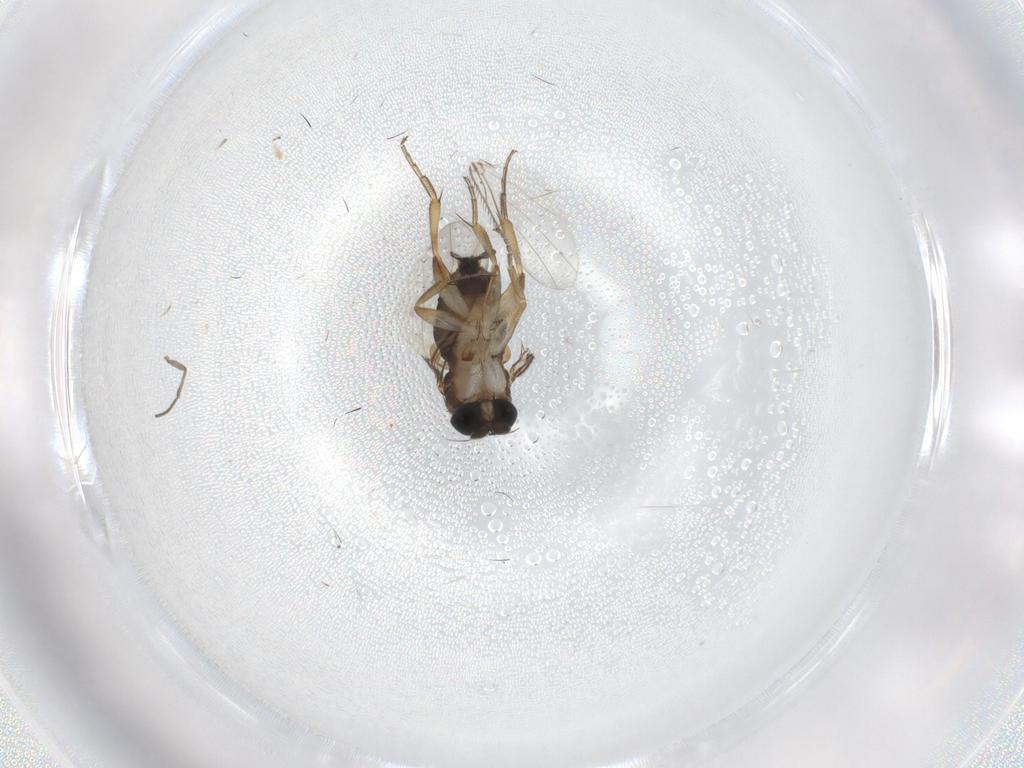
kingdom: Animalia
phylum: Arthropoda
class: Insecta
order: Diptera
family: Phoridae
